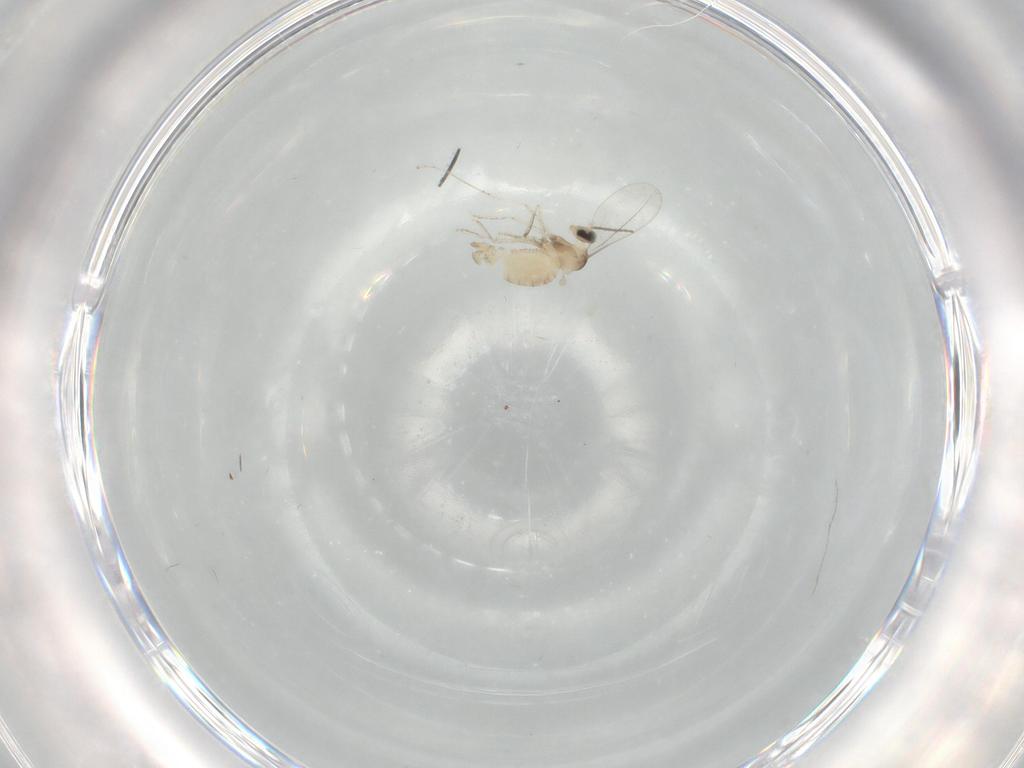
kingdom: Animalia
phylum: Arthropoda
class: Insecta
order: Diptera
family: Cecidomyiidae
